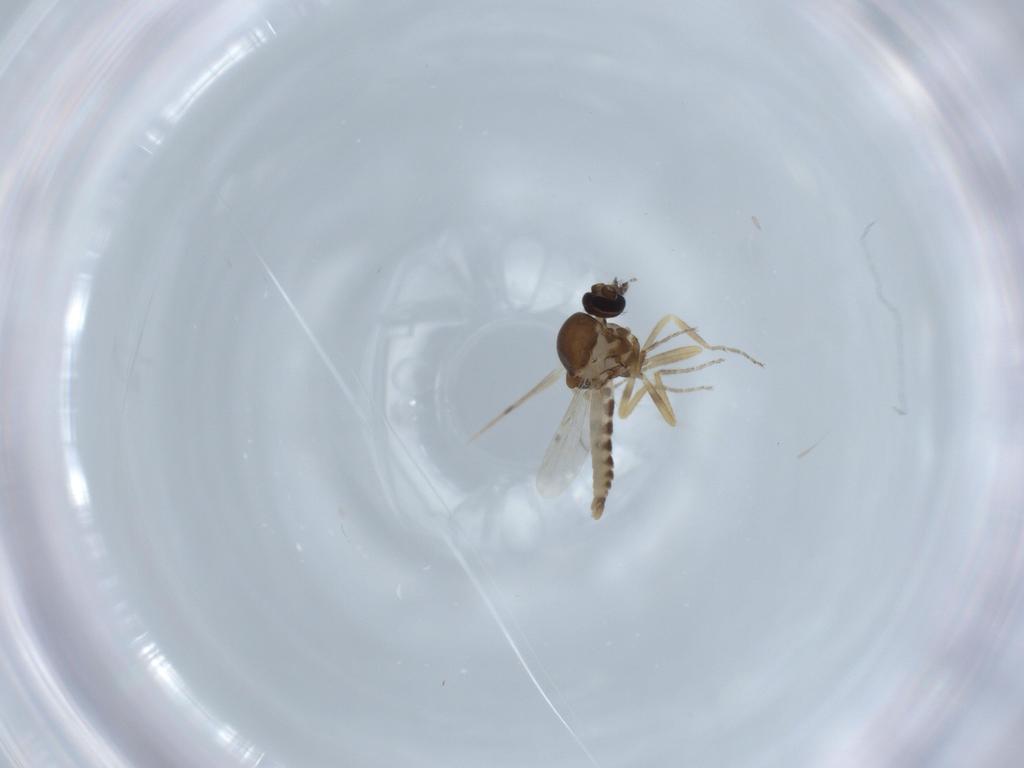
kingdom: Animalia
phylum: Arthropoda
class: Insecta
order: Diptera
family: Ceratopogonidae
